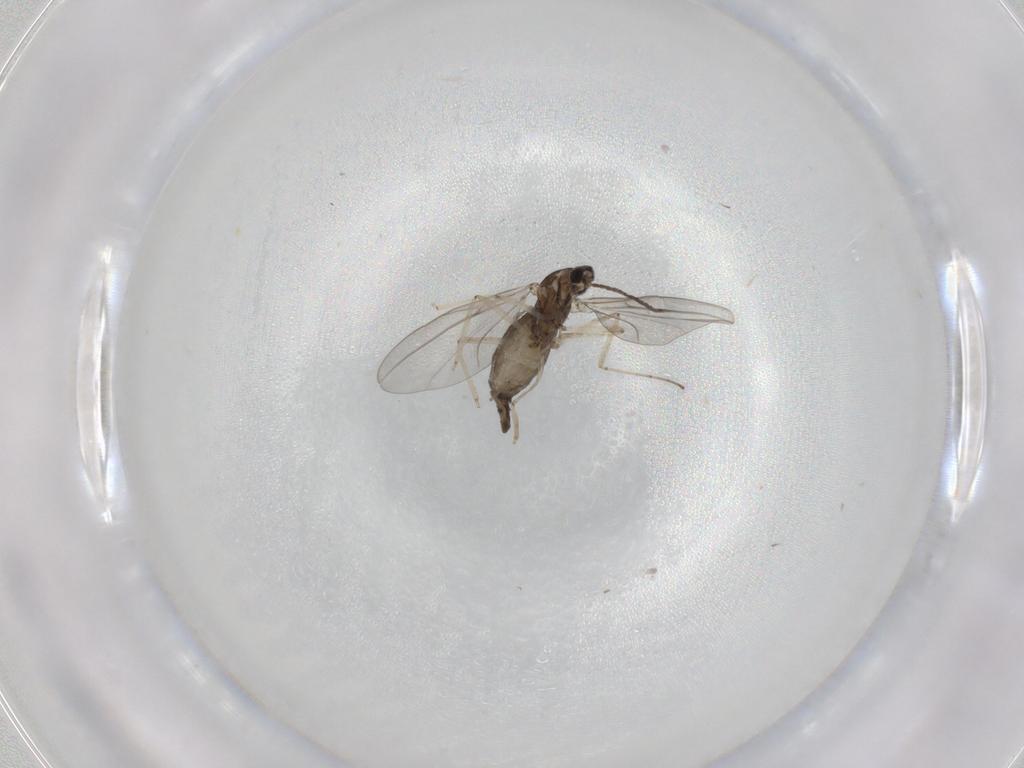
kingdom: Animalia
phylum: Arthropoda
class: Insecta
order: Diptera
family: Cecidomyiidae
